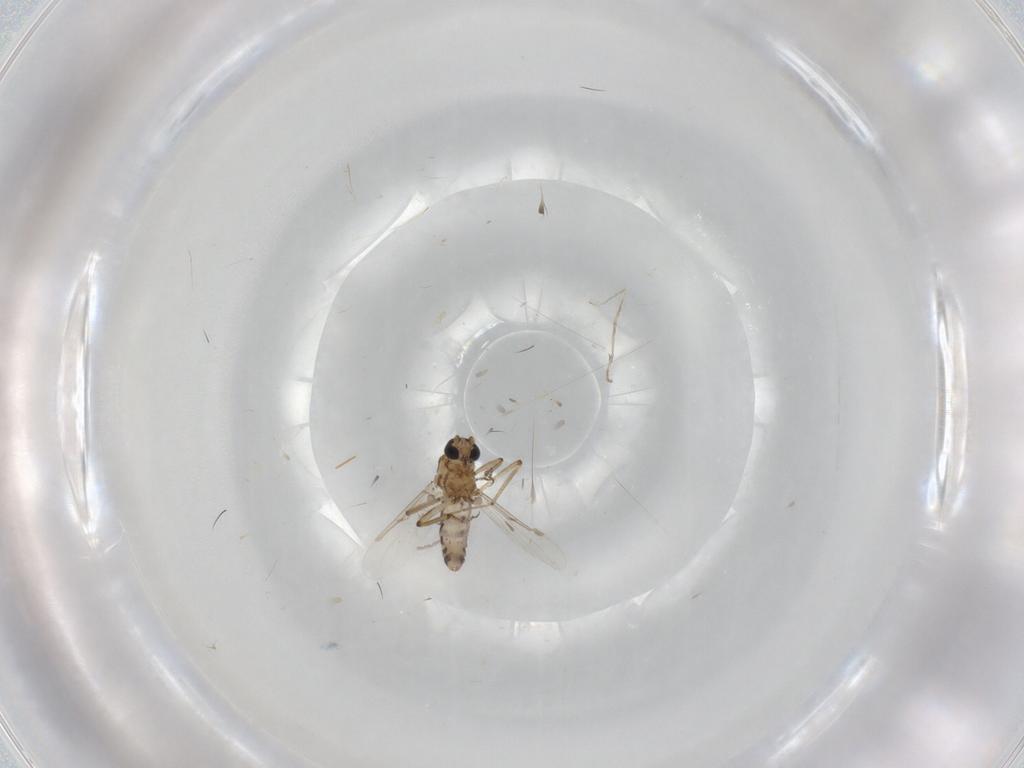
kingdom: Animalia
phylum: Arthropoda
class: Insecta
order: Diptera
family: Ceratopogonidae
